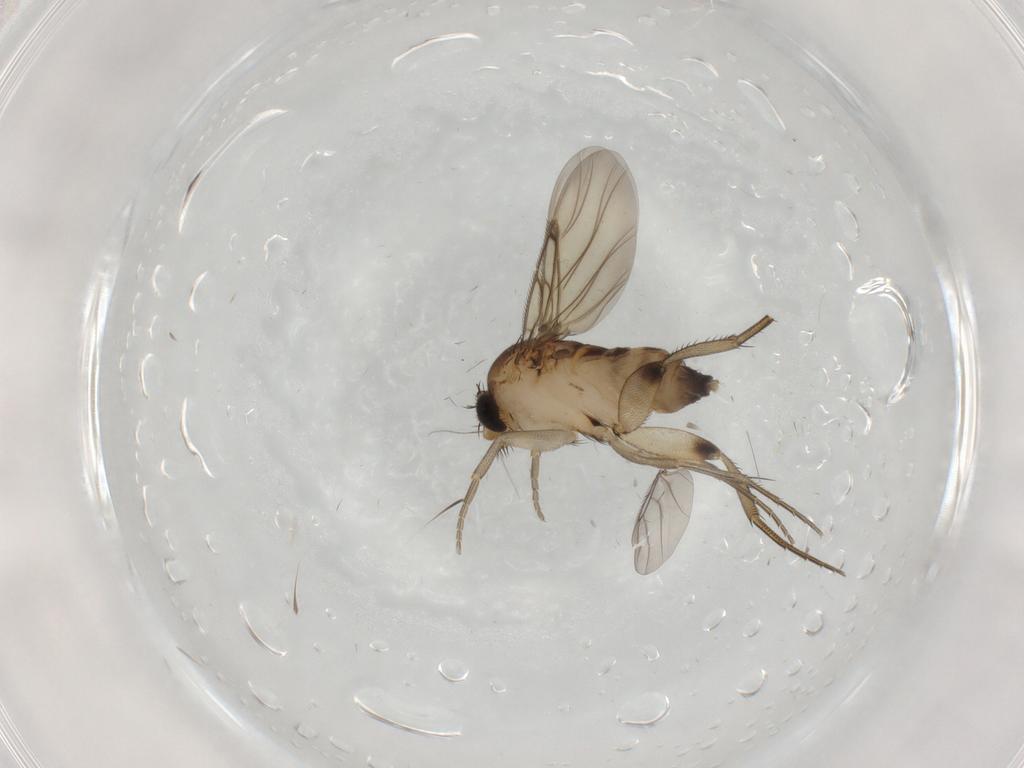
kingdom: Animalia
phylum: Arthropoda
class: Insecta
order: Diptera
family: Phoridae
